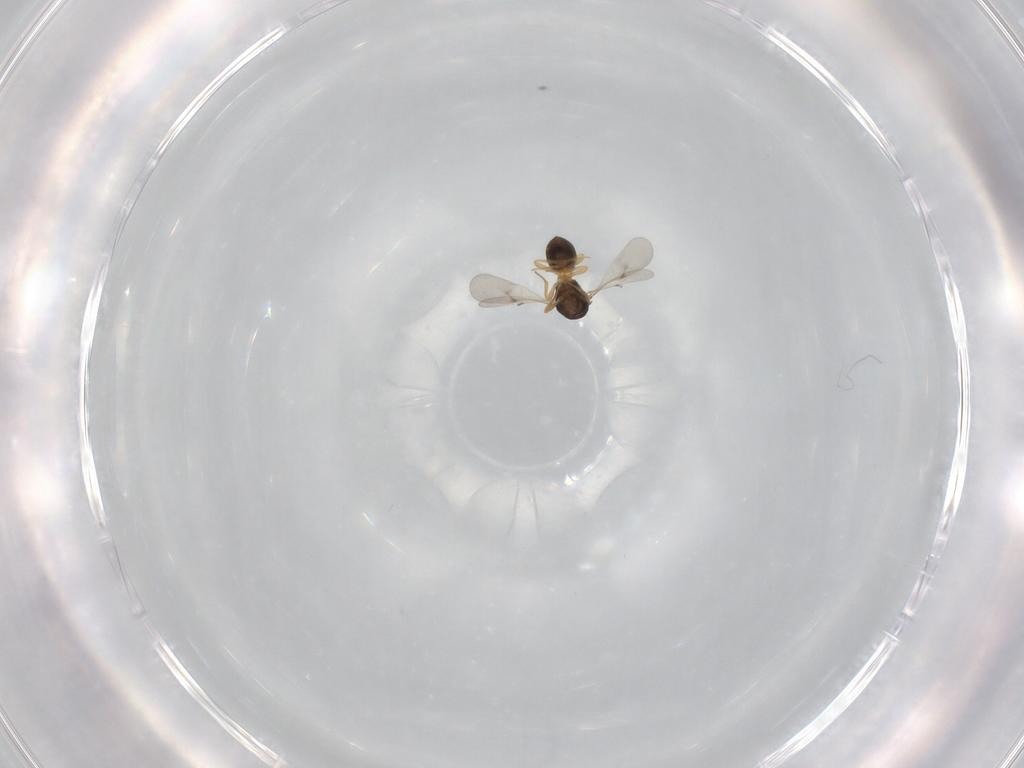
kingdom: Animalia
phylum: Arthropoda
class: Insecta
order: Hymenoptera
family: Scelionidae
